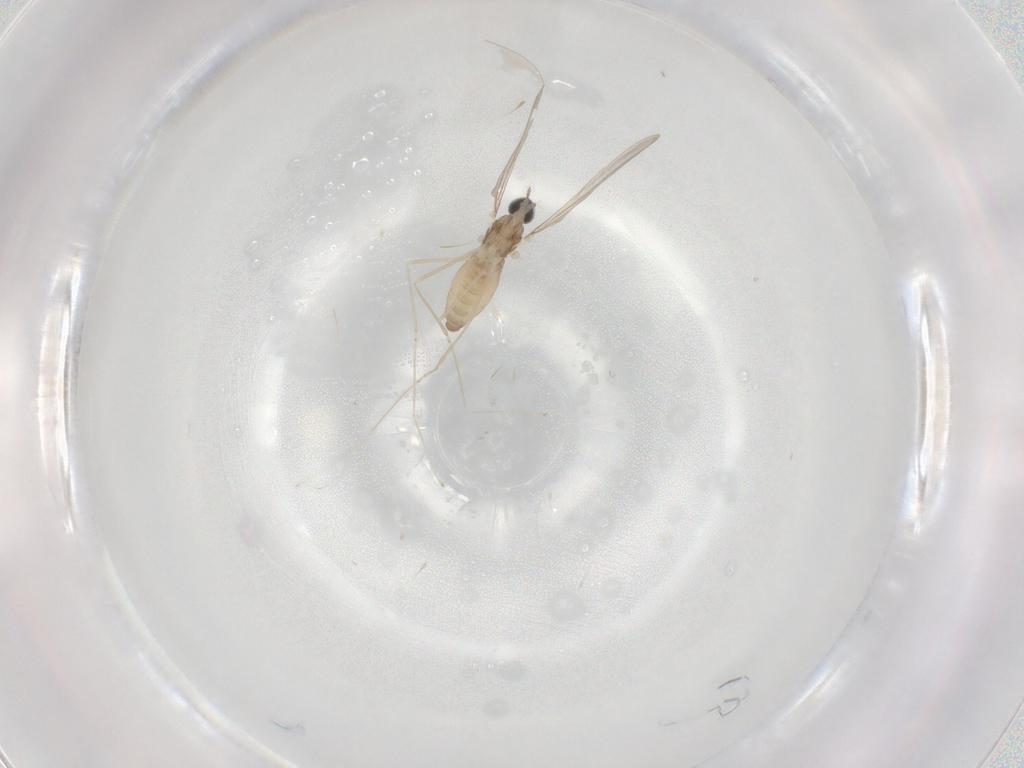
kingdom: Animalia
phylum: Arthropoda
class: Insecta
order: Diptera
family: Cecidomyiidae
